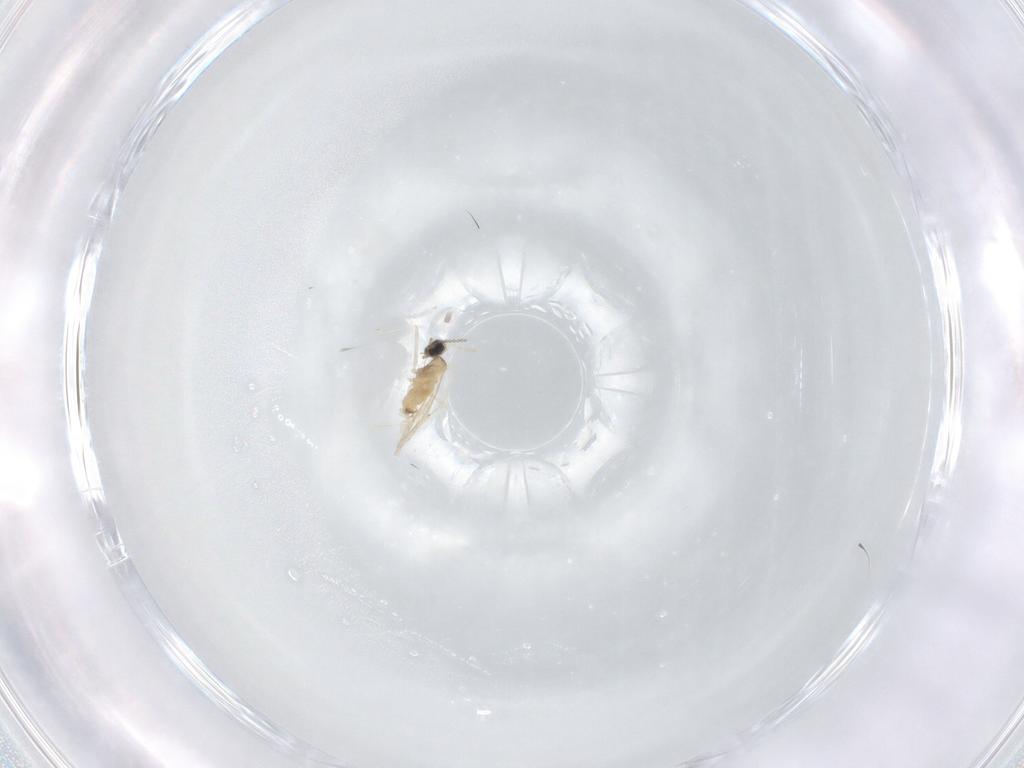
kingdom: Animalia
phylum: Arthropoda
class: Insecta
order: Diptera
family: Cecidomyiidae
